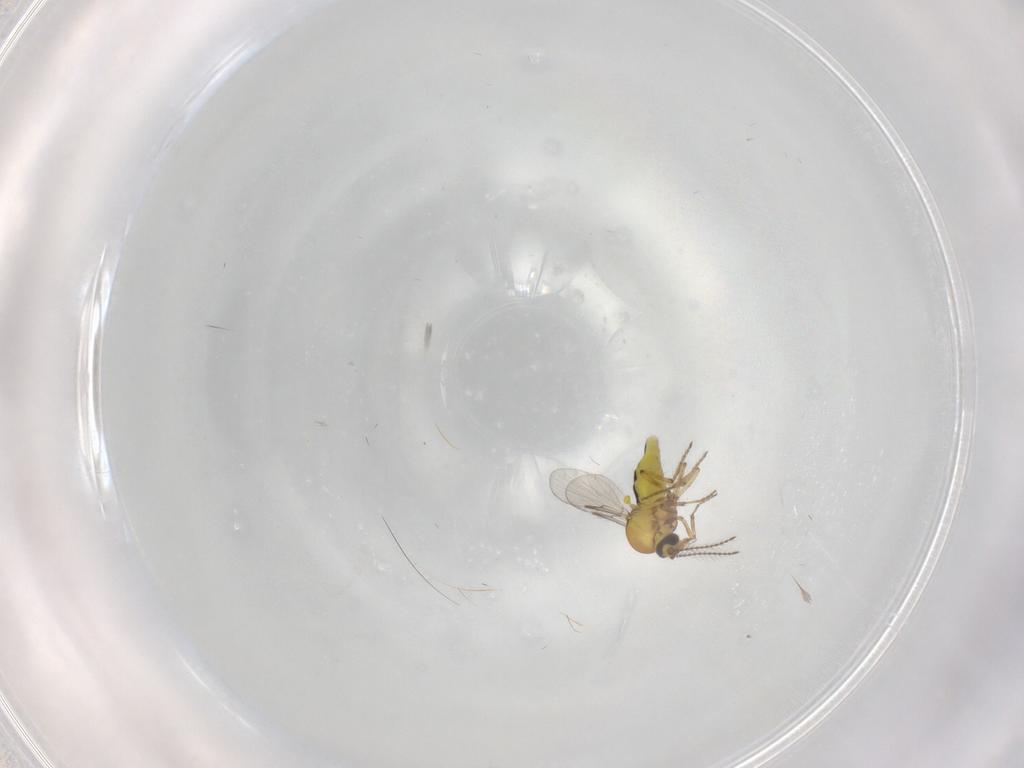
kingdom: Animalia
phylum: Arthropoda
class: Insecta
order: Diptera
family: Ceratopogonidae
